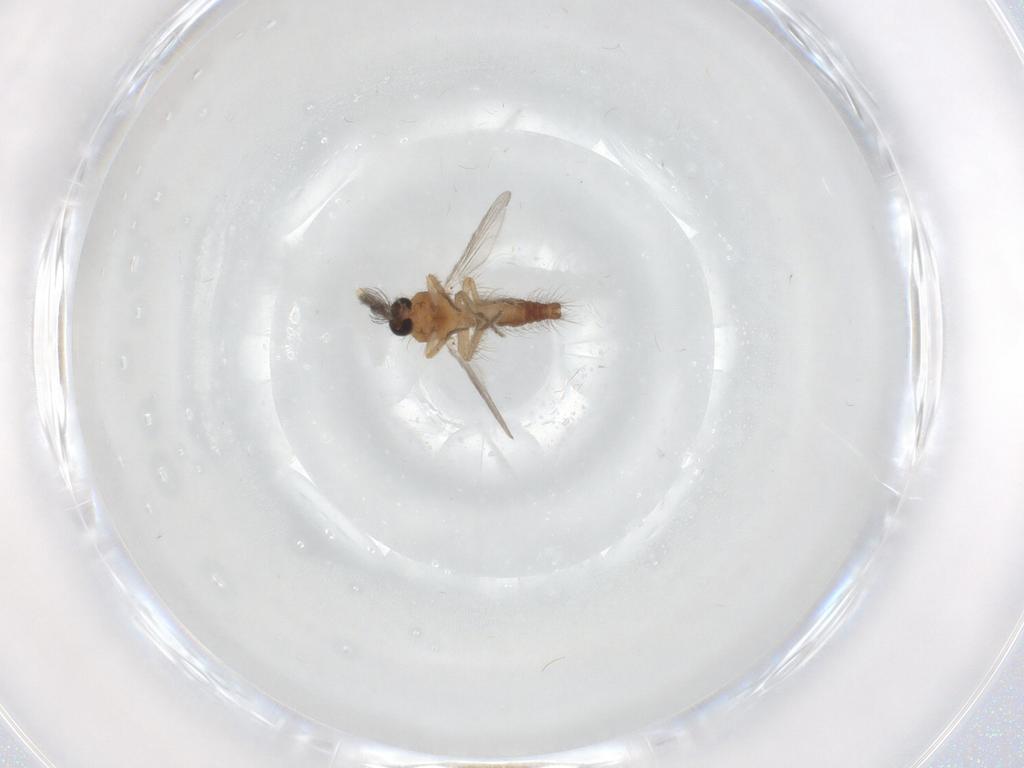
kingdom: Animalia
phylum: Arthropoda
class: Insecta
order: Diptera
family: Ceratopogonidae
